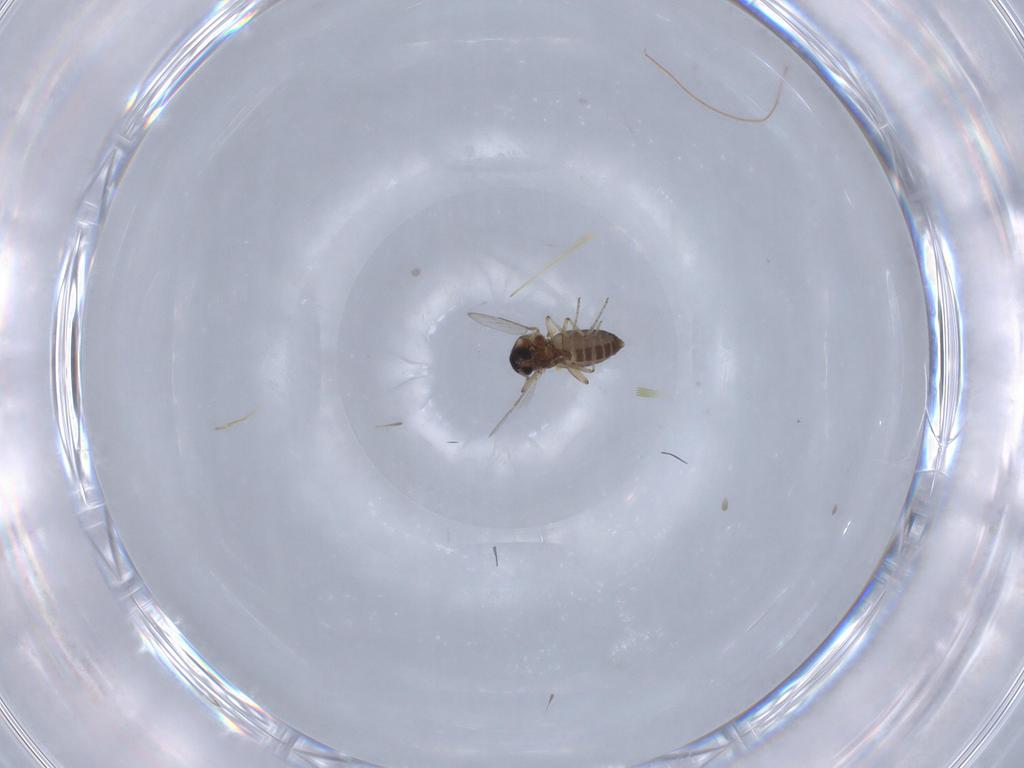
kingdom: Animalia
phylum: Arthropoda
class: Insecta
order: Diptera
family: Ceratopogonidae
